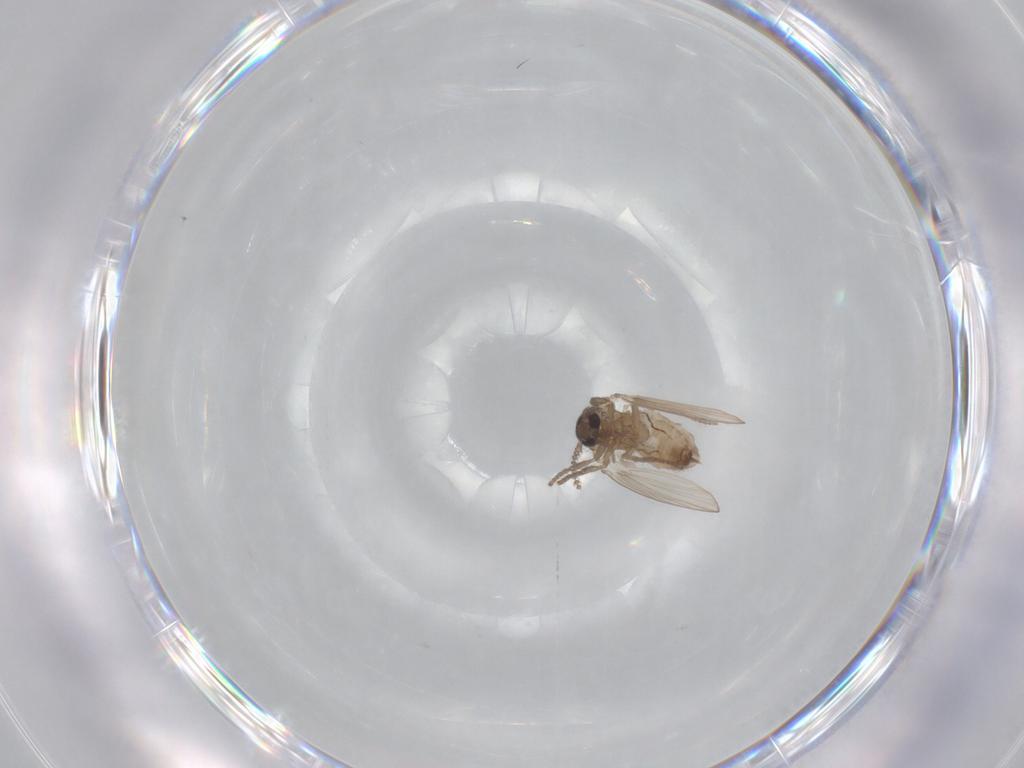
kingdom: Animalia
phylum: Arthropoda
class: Insecta
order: Diptera
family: Psychodidae
